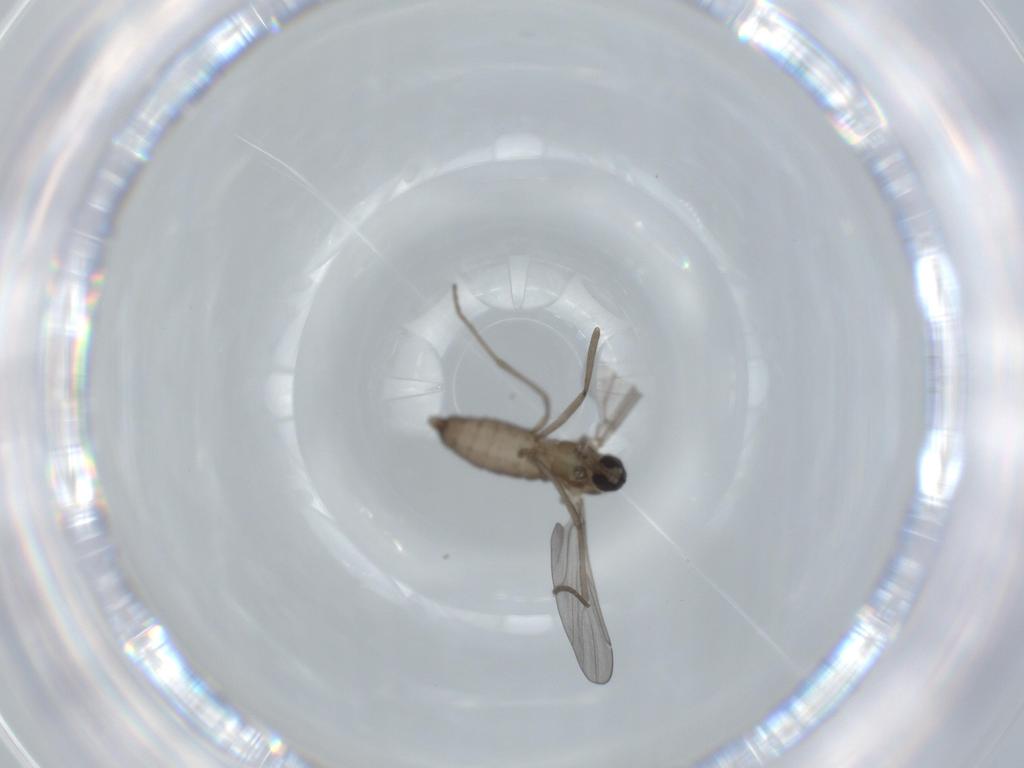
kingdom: Animalia
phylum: Arthropoda
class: Insecta
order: Diptera
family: Cecidomyiidae
